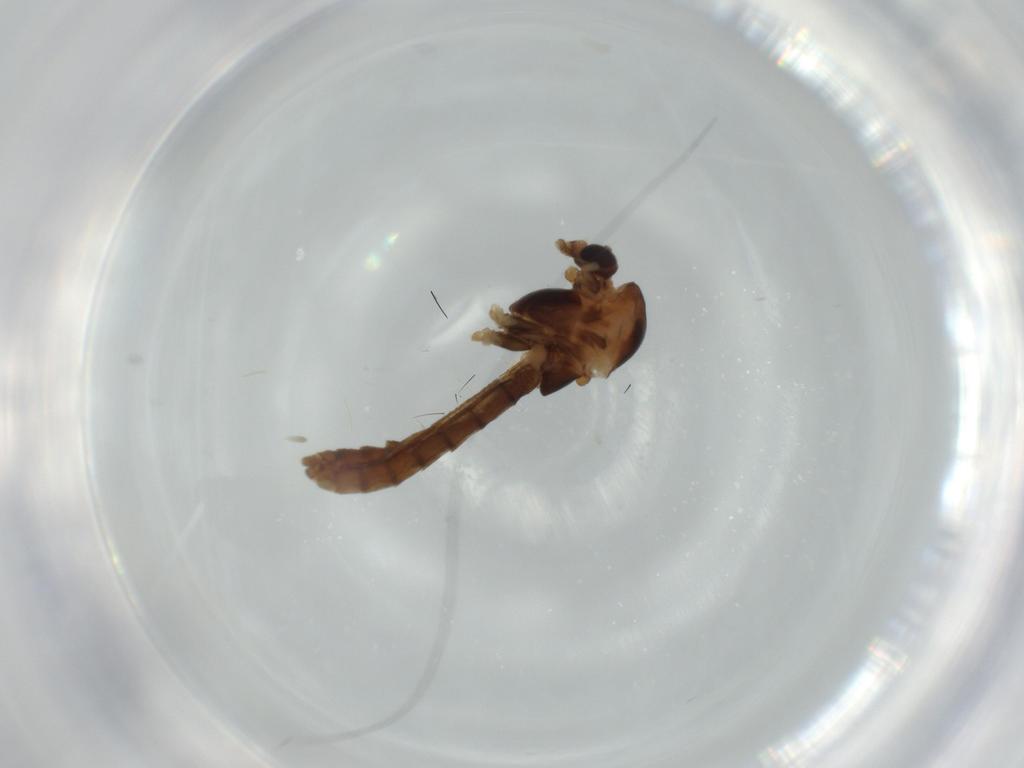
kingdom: Animalia
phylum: Arthropoda
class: Insecta
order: Diptera
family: Chironomidae
